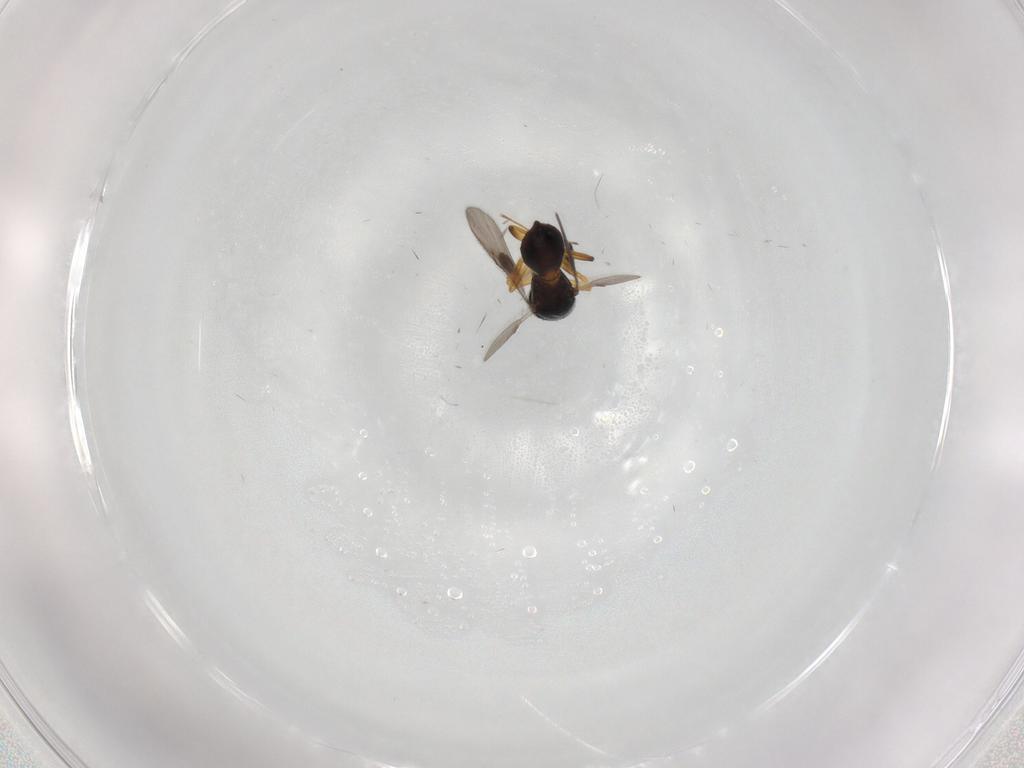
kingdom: Animalia
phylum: Arthropoda
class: Insecta
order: Hymenoptera
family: Scelionidae
